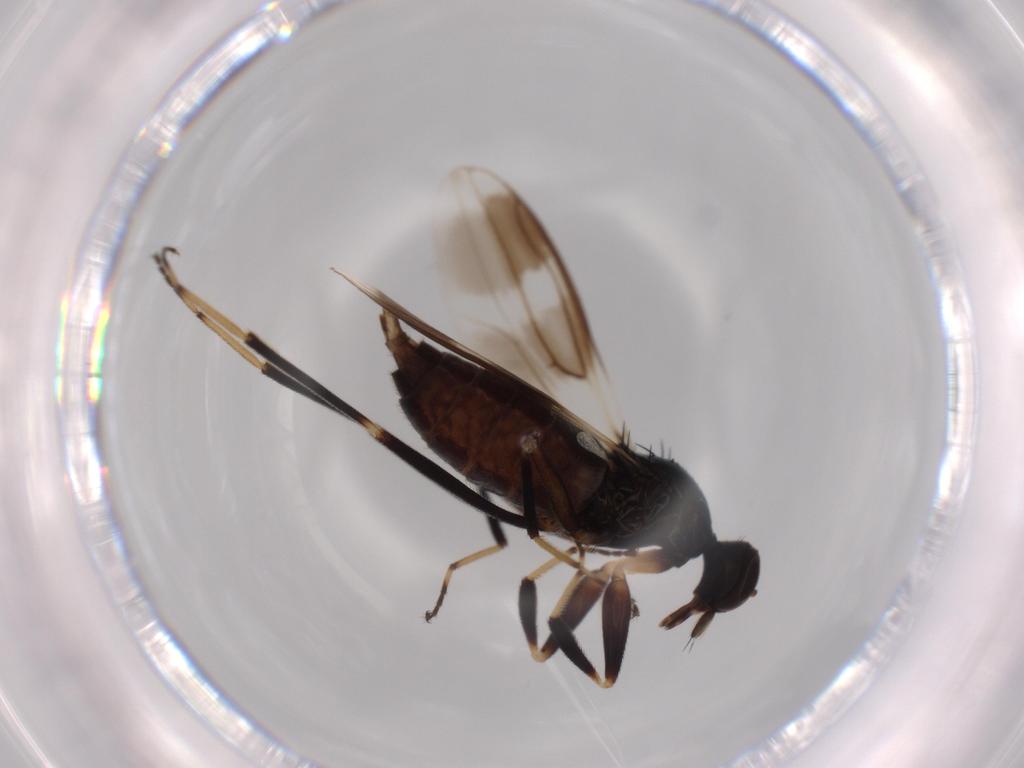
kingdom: Animalia
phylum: Arthropoda
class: Insecta
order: Diptera
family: Hybotidae
